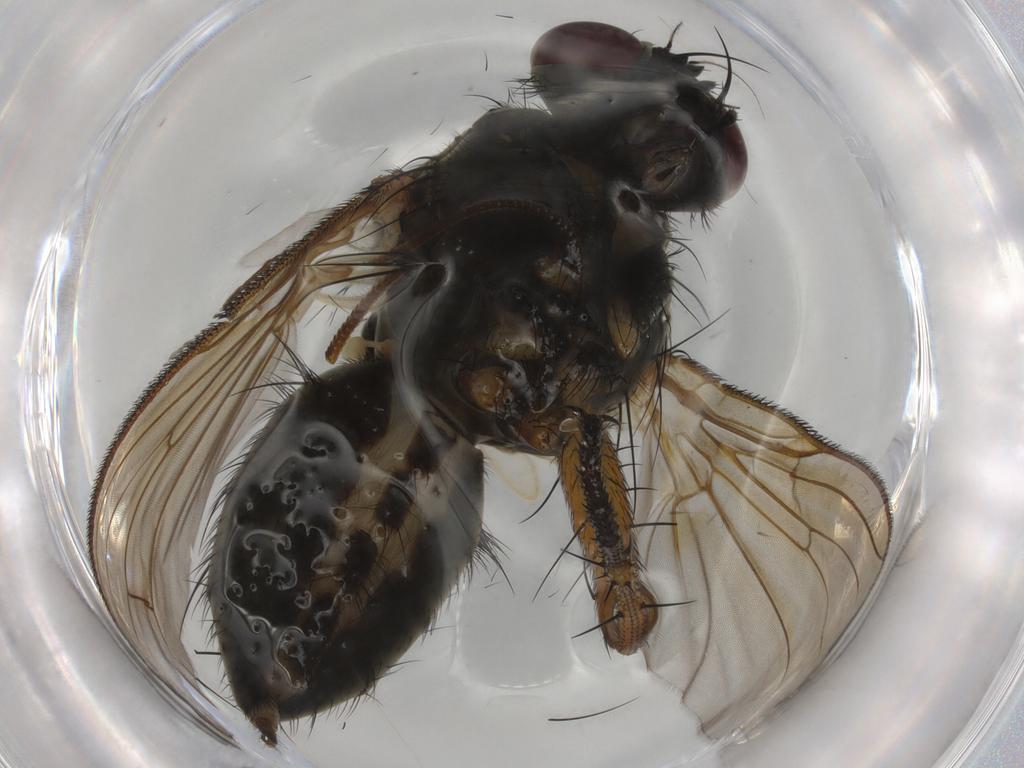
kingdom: Animalia
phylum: Arthropoda
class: Insecta
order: Diptera
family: Muscidae
